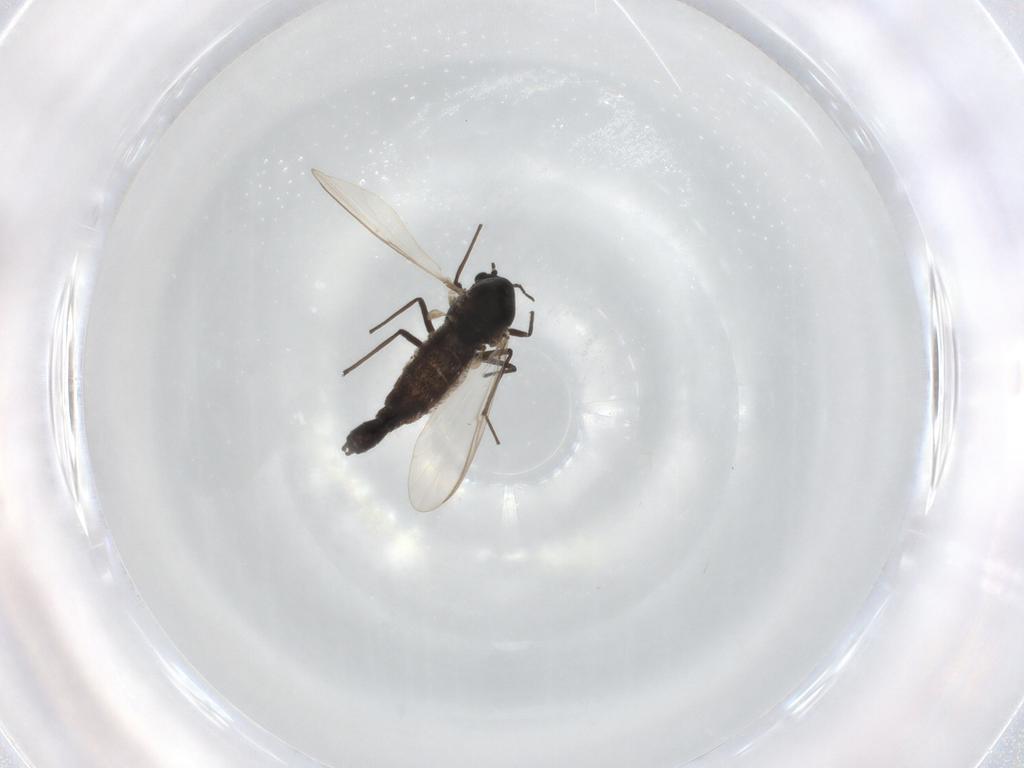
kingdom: Animalia
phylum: Arthropoda
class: Insecta
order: Diptera
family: Chironomidae
